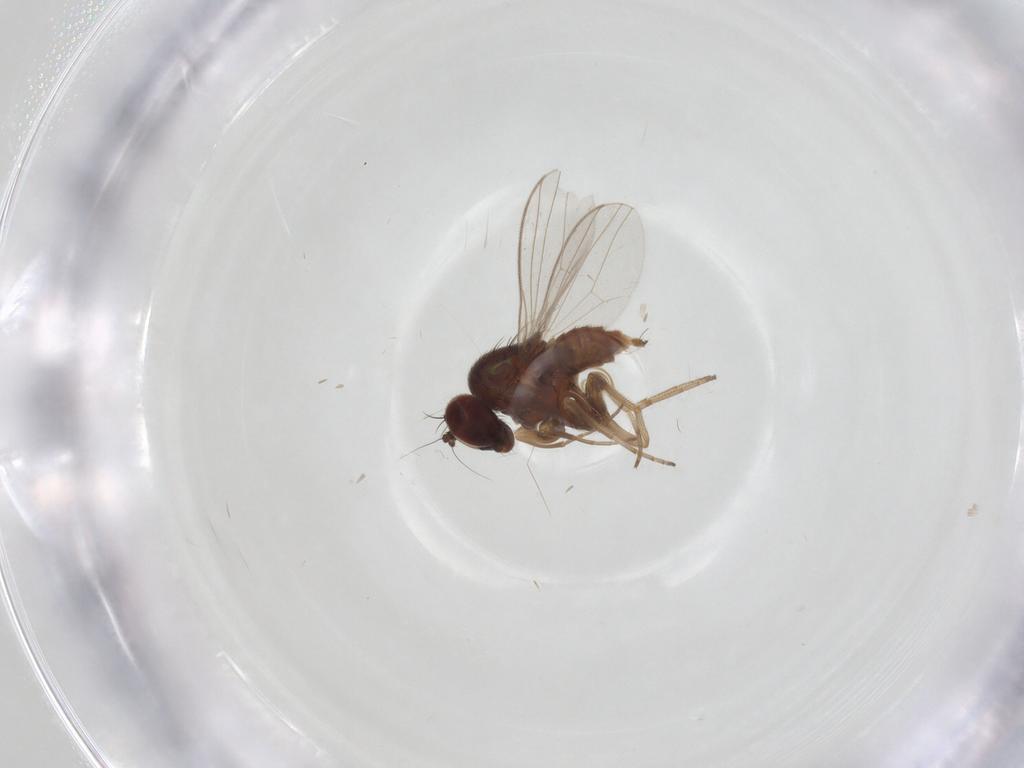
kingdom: Animalia
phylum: Arthropoda
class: Insecta
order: Diptera
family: Dolichopodidae
